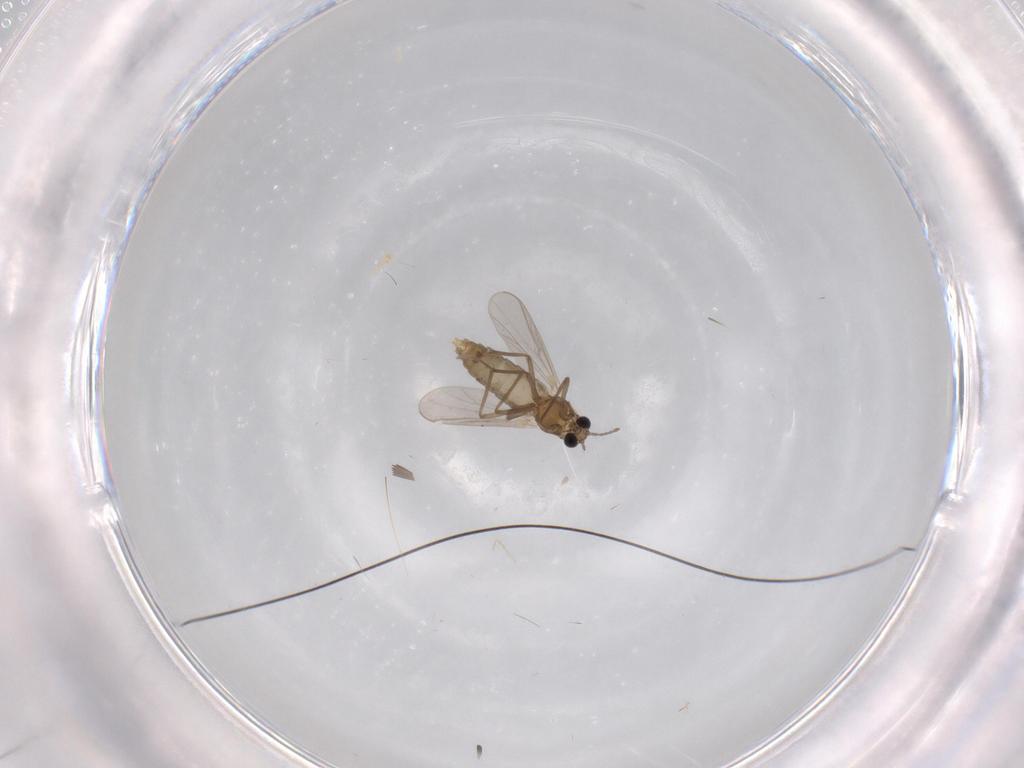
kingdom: Animalia
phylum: Arthropoda
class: Insecta
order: Diptera
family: Chironomidae
